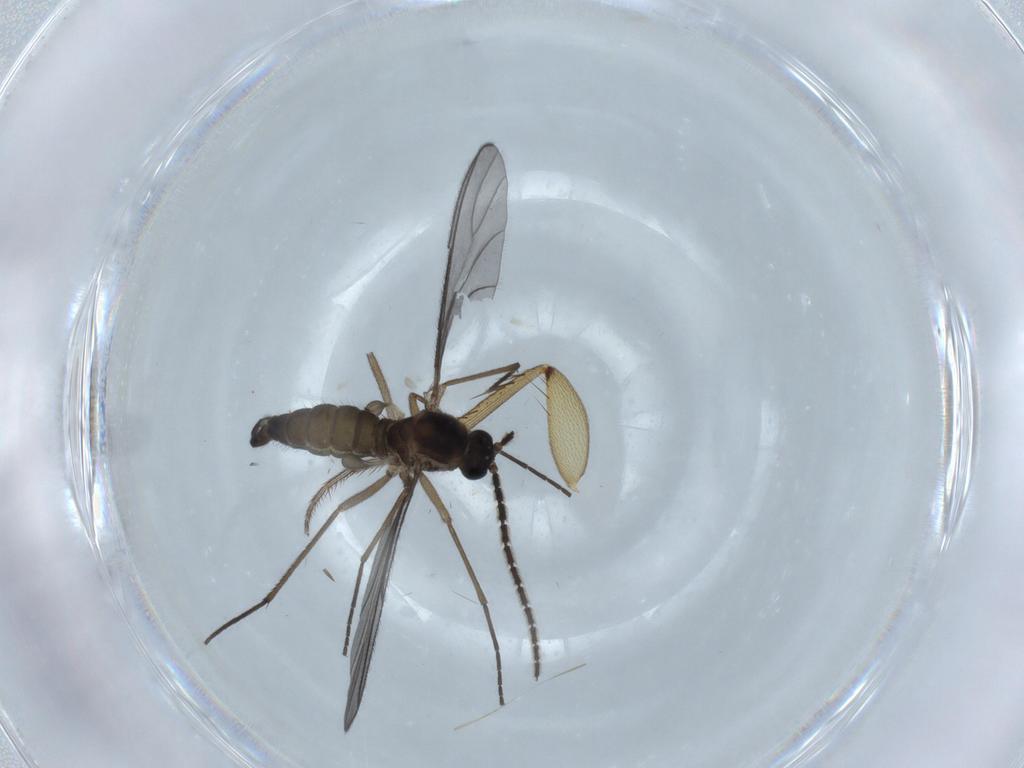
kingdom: Animalia
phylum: Arthropoda
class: Insecta
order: Diptera
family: Mycetophilidae
